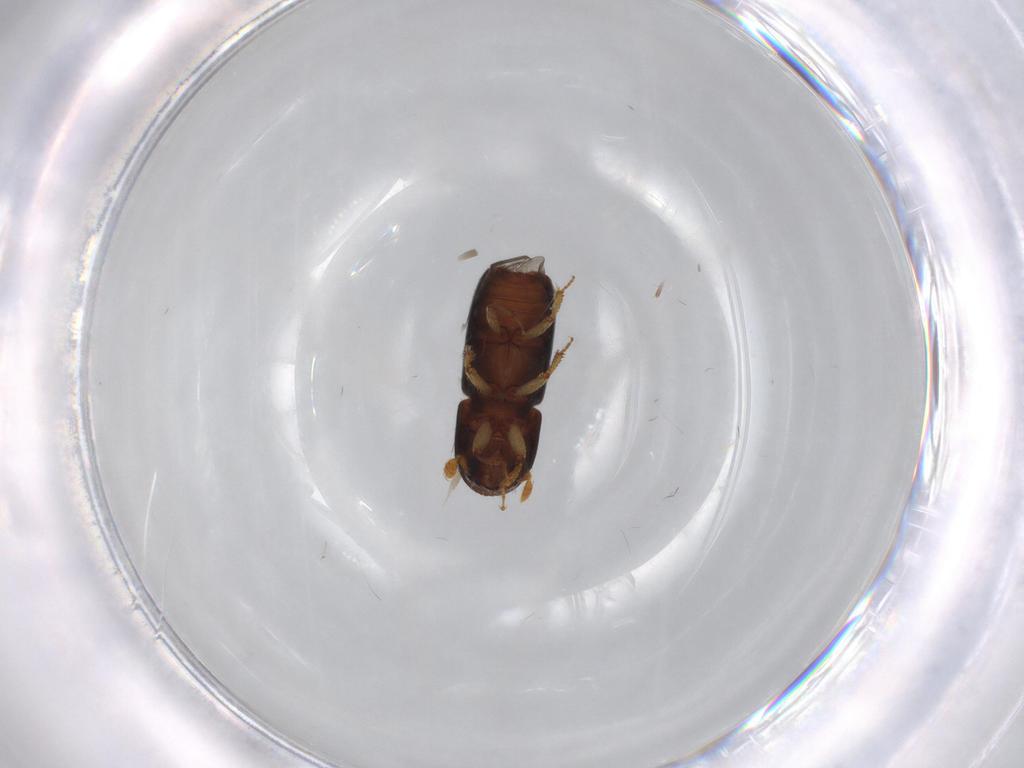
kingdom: Animalia
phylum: Arthropoda
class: Insecta
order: Coleoptera
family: Curculionidae
